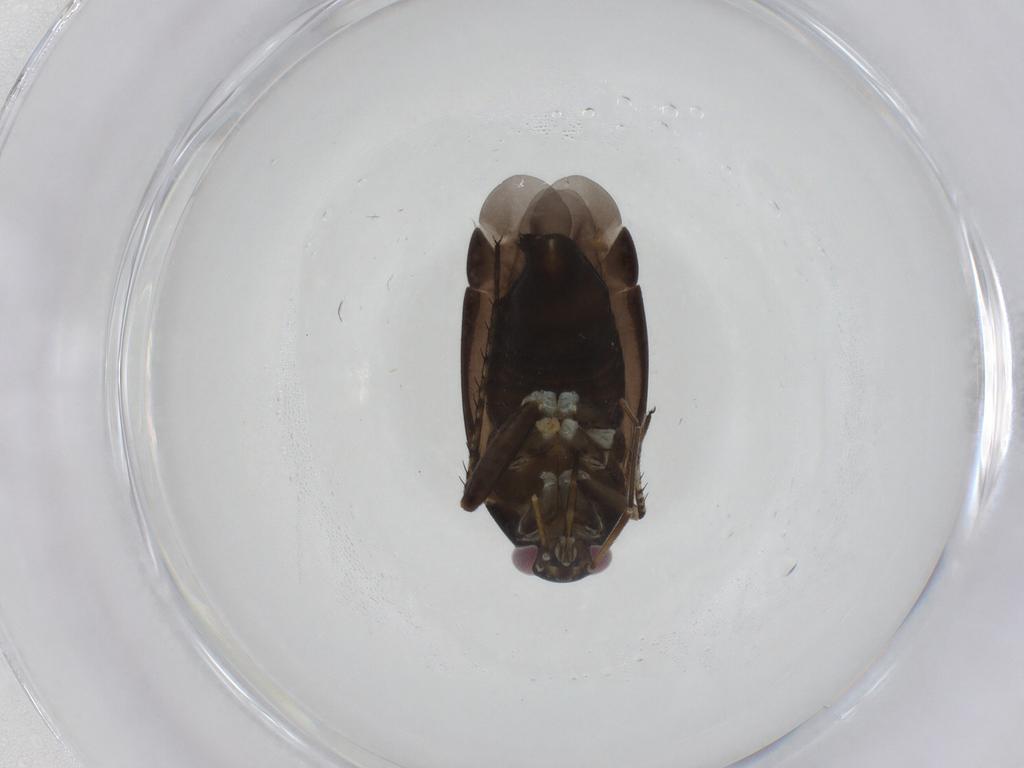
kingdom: Animalia
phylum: Arthropoda
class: Insecta
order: Hemiptera
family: Miridae
